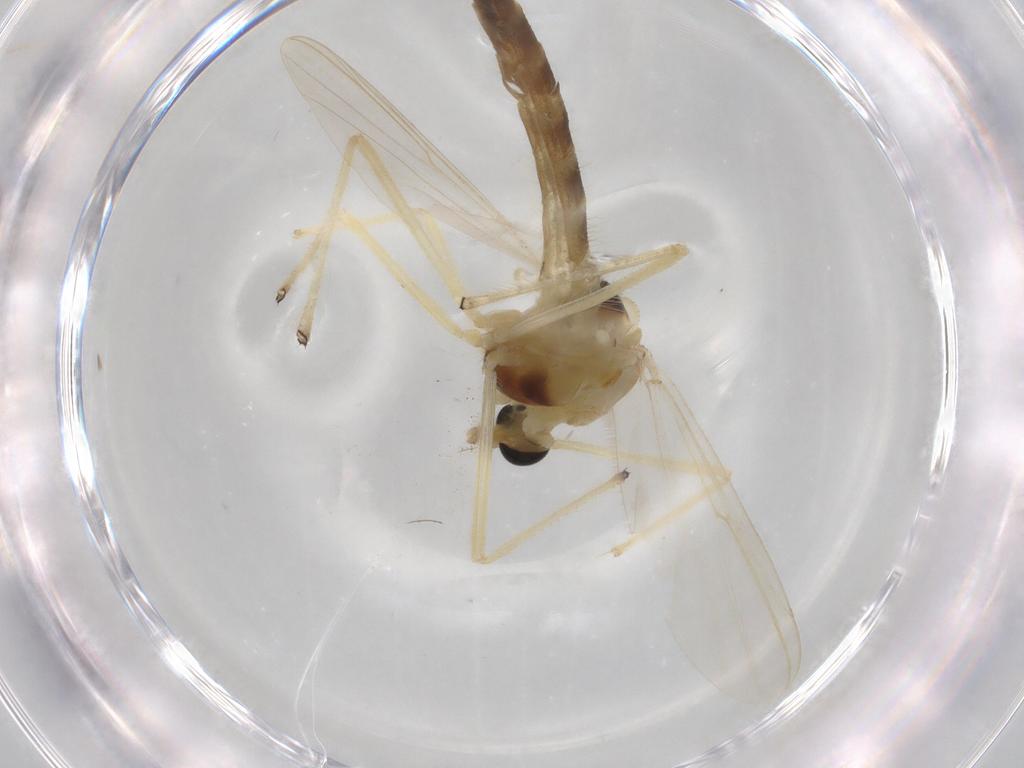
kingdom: Animalia
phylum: Arthropoda
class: Insecta
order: Diptera
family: Chironomidae
